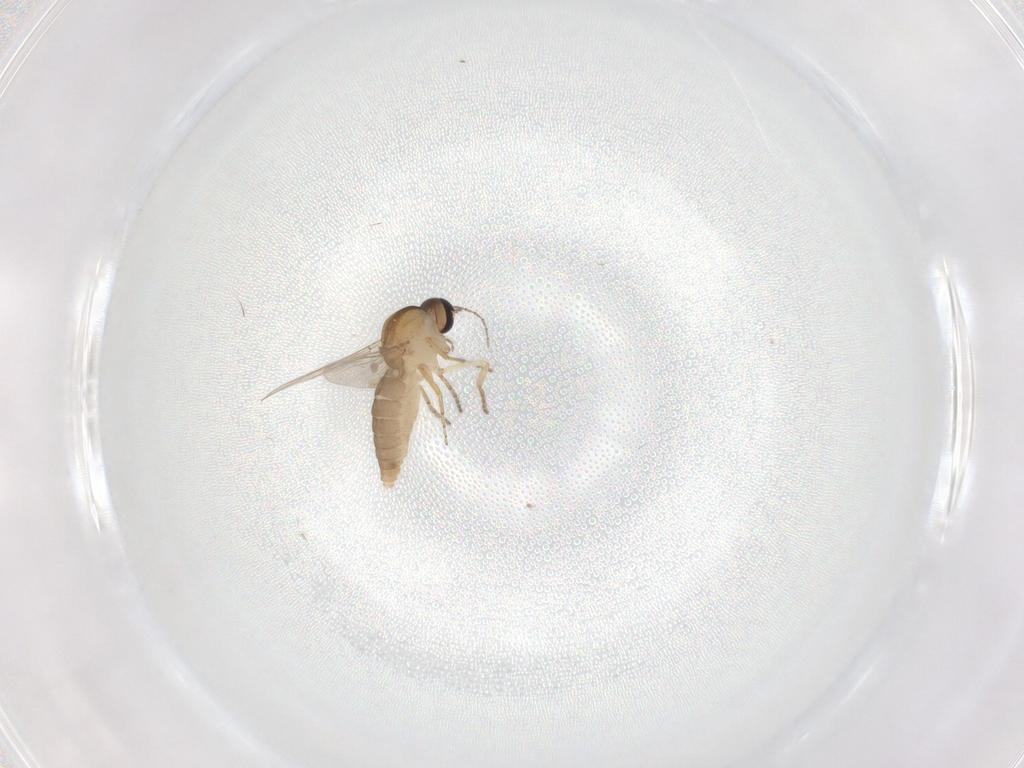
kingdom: Animalia
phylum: Arthropoda
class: Insecta
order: Diptera
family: Ceratopogonidae
